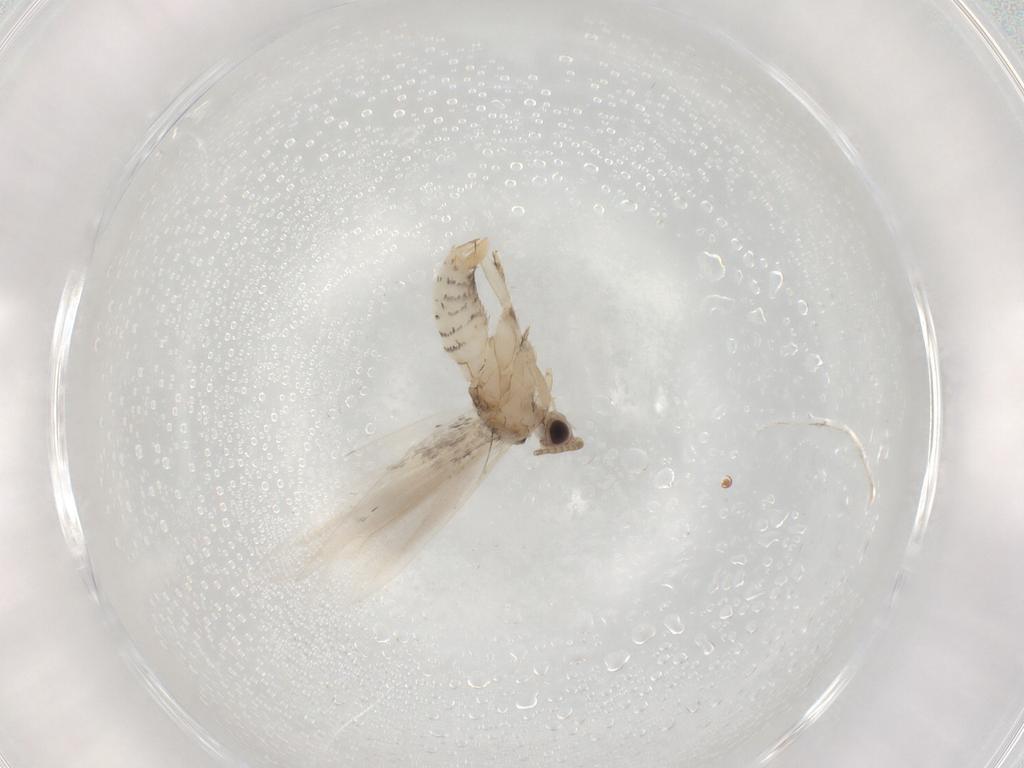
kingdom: Animalia
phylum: Arthropoda
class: Insecta
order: Lepidoptera
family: Tineidae
